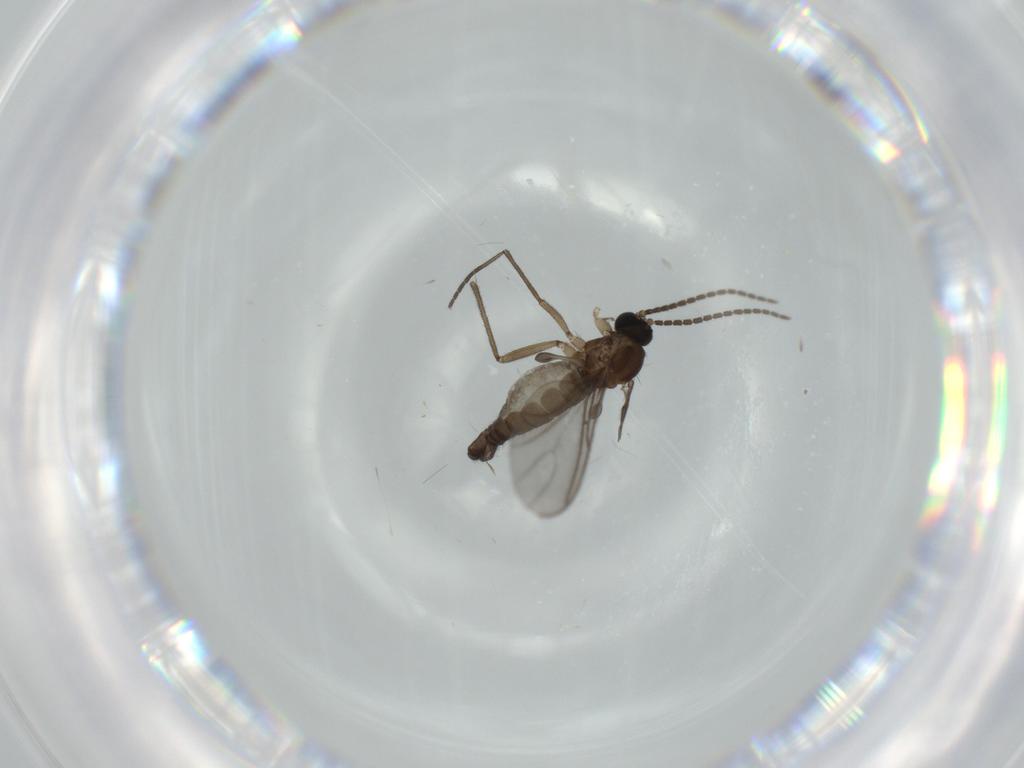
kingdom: Animalia
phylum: Arthropoda
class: Insecta
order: Diptera
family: Sciaridae
